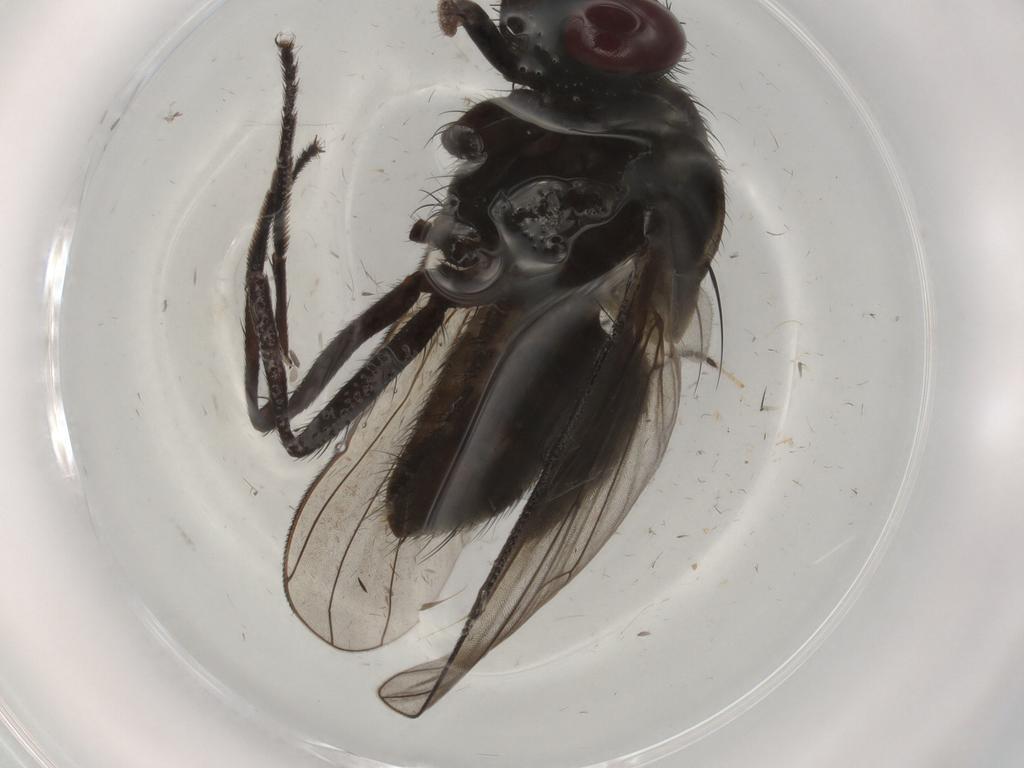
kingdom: Animalia
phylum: Arthropoda
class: Insecta
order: Diptera
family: Muscidae
